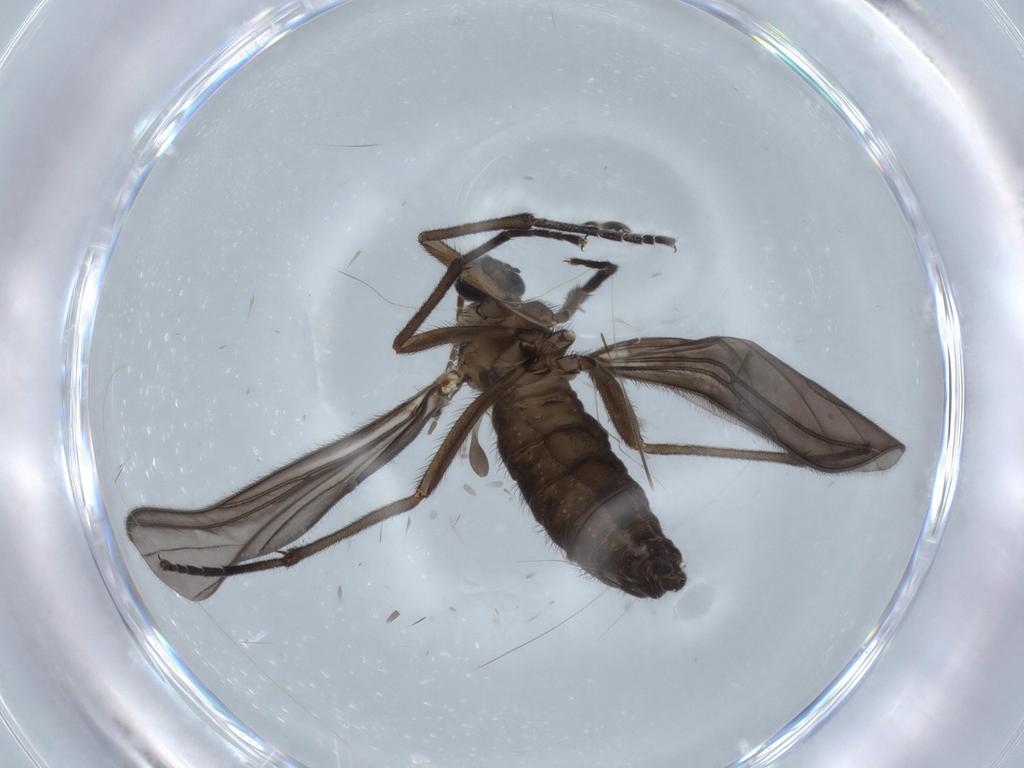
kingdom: Animalia
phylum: Arthropoda
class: Insecta
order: Diptera
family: Sciaridae
